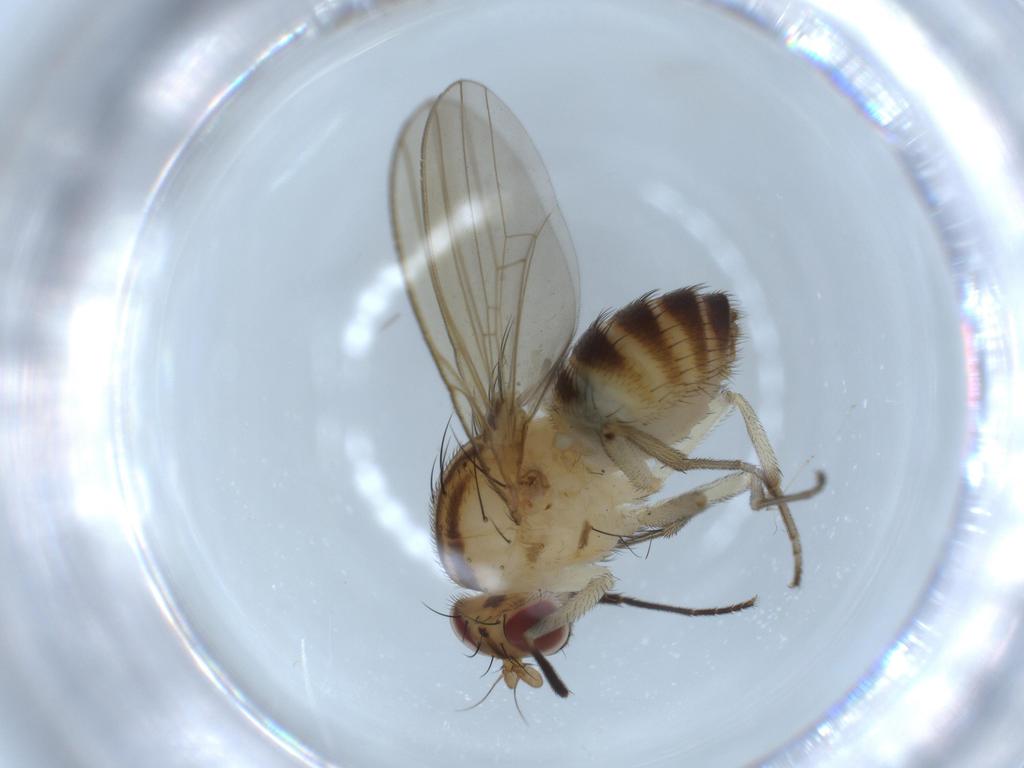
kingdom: Animalia
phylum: Arthropoda
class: Insecta
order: Diptera
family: Cecidomyiidae
